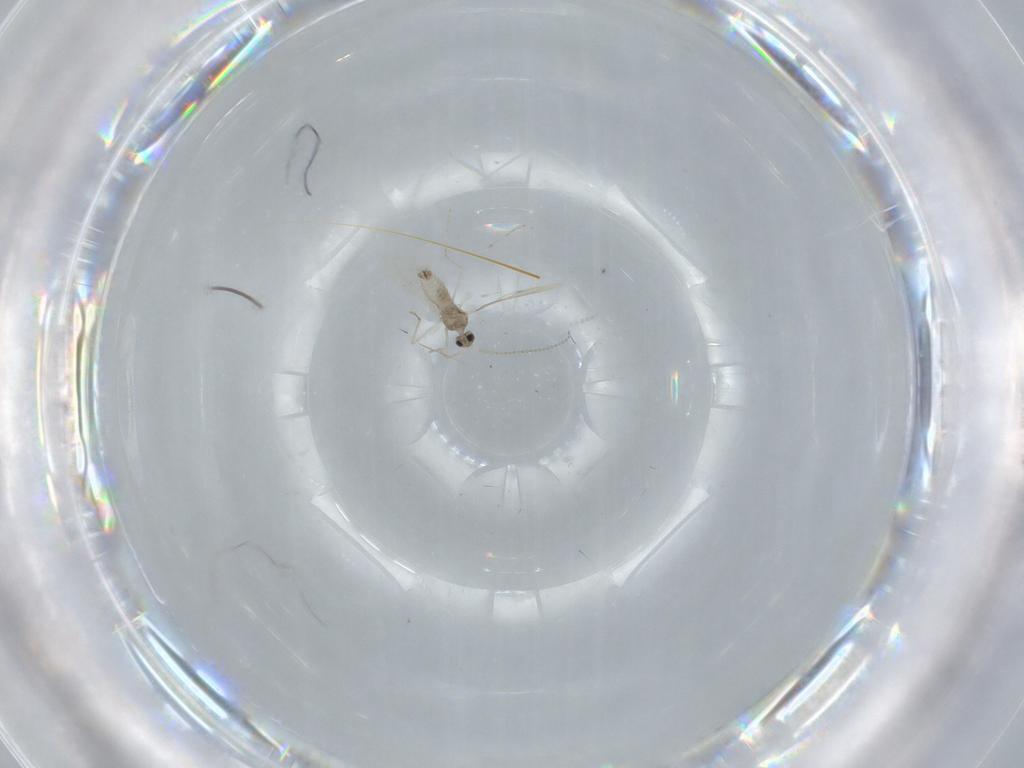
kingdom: Animalia
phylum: Arthropoda
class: Insecta
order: Diptera
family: Cecidomyiidae
